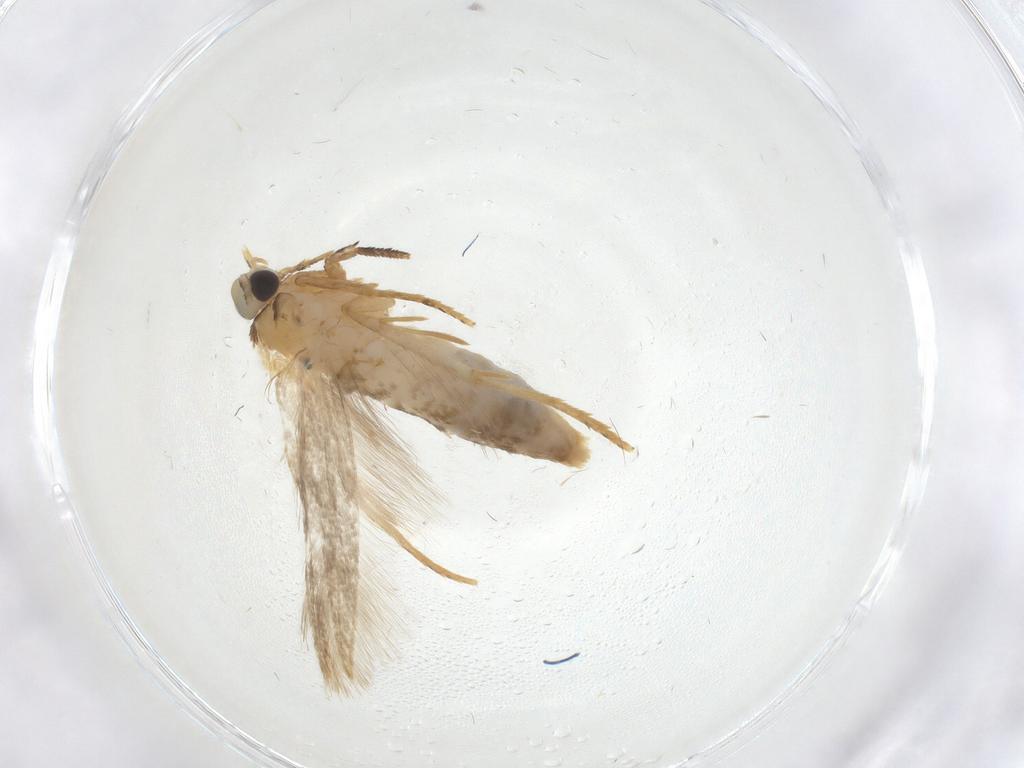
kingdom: Animalia
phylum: Arthropoda
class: Insecta
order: Lepidoptera
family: Tineidae
